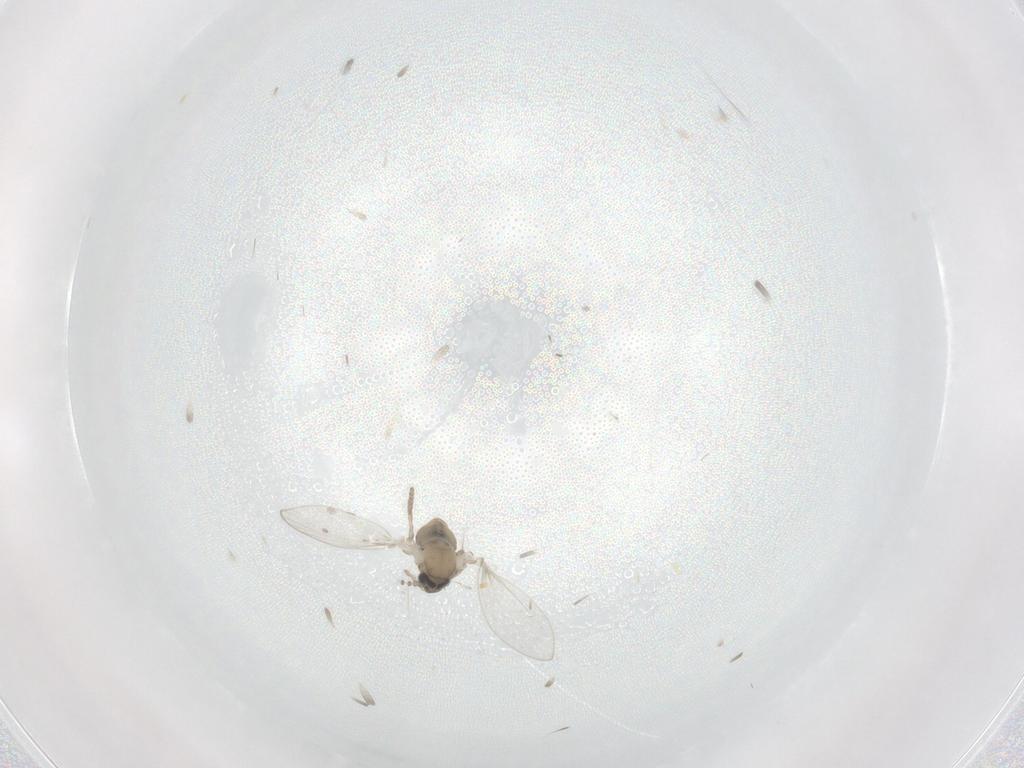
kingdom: Animalia
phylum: Arthropoda
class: Insecta
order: Diptera
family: Psychodidae
